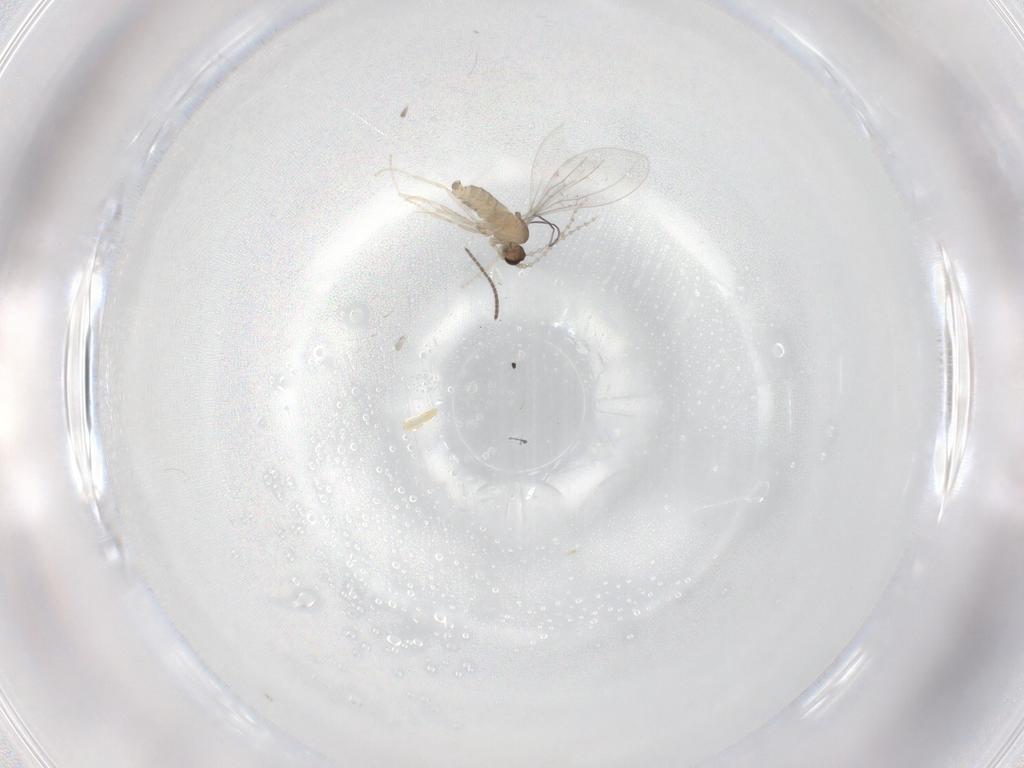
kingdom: Animalia
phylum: Arthropoda
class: Insecta
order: Diptera
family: Cecidomyiidae
